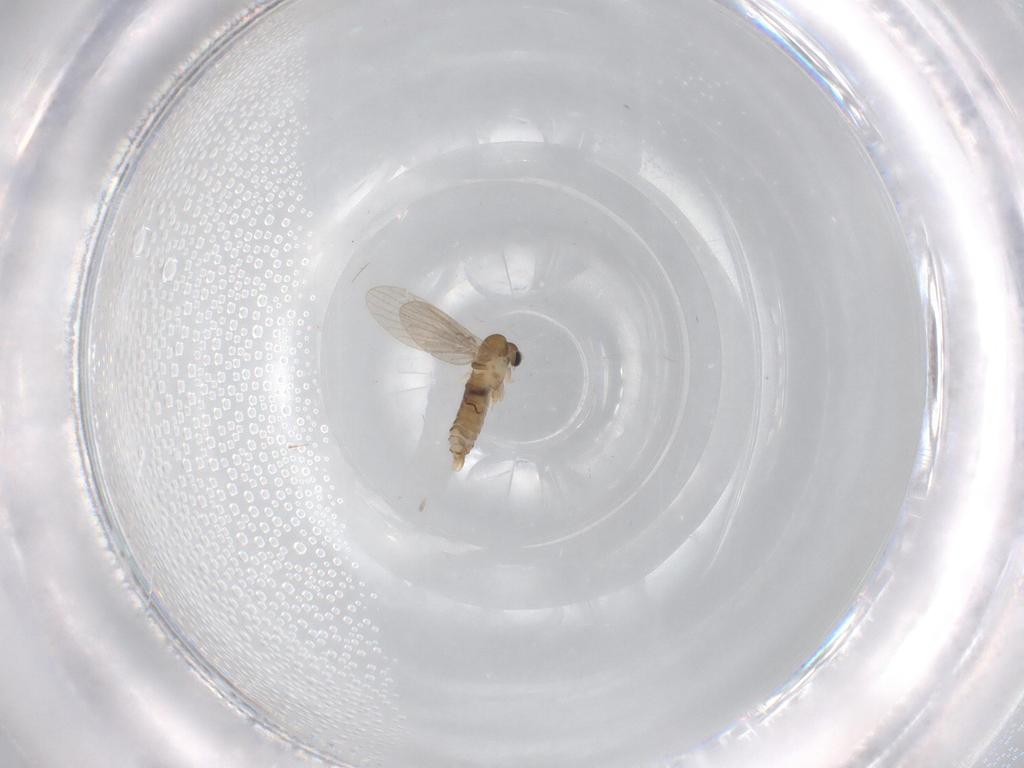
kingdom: Animalia
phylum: Arthropoda
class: Insecta
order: Diptera
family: Psychodidae
